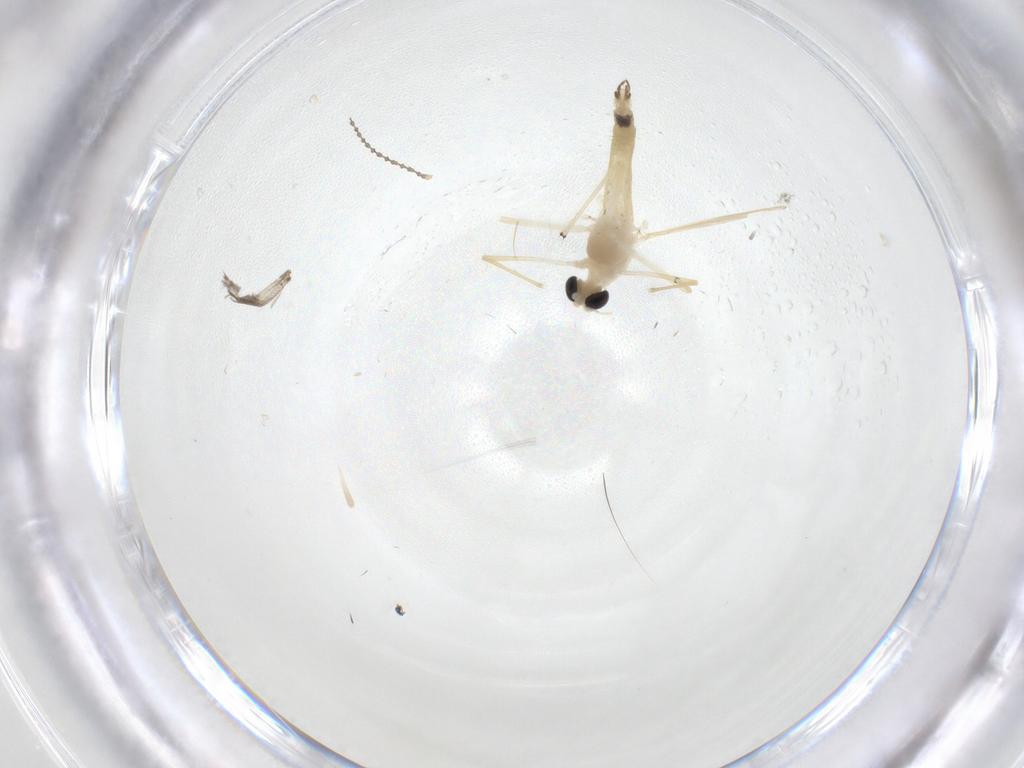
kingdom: Animalia
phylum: Arthropoda
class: Insecta
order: Diptera
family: Chironomidae
